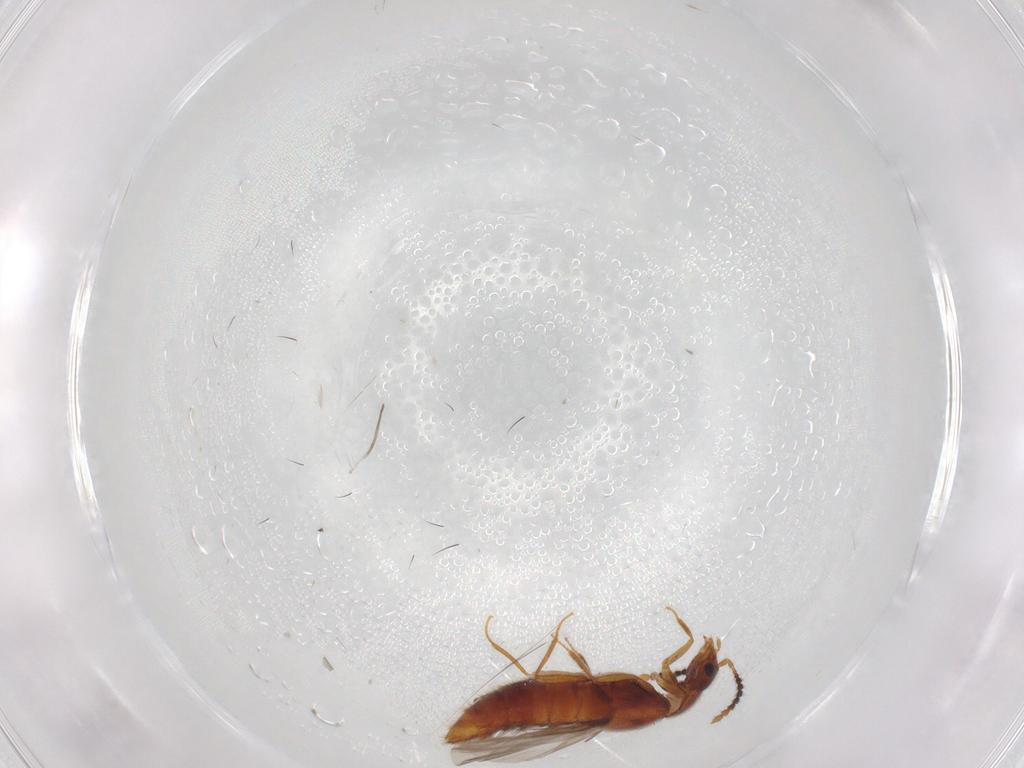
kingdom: Animalia
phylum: Arthropoda
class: Insecta
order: Coleoptera
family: Staphylinidae
